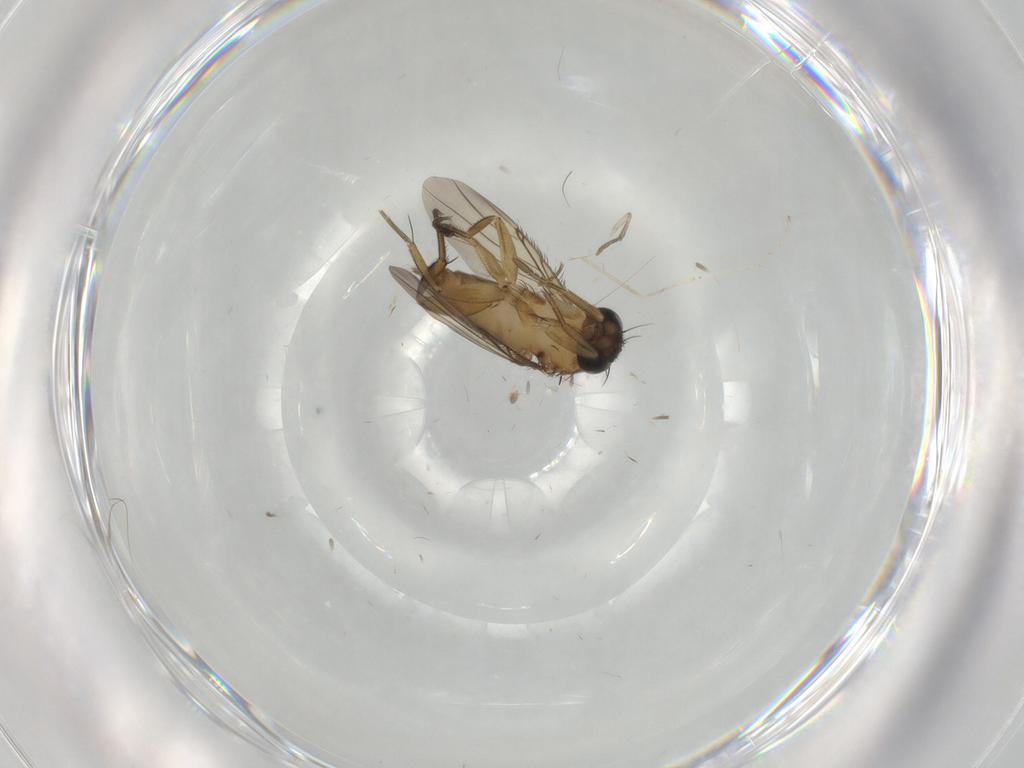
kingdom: Animalia
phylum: Arthropoda
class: Insecta
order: Diptera
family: Phoridae
